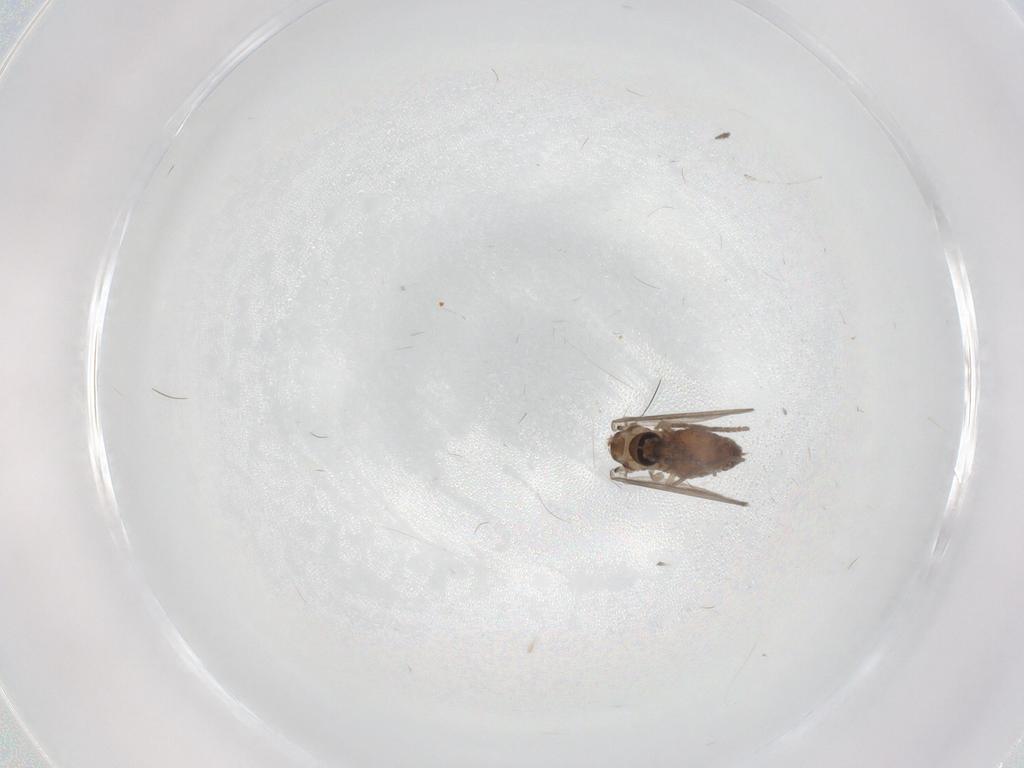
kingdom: Animalia
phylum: Arthropoda
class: Insecta
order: Diptera
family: Psychodidae
